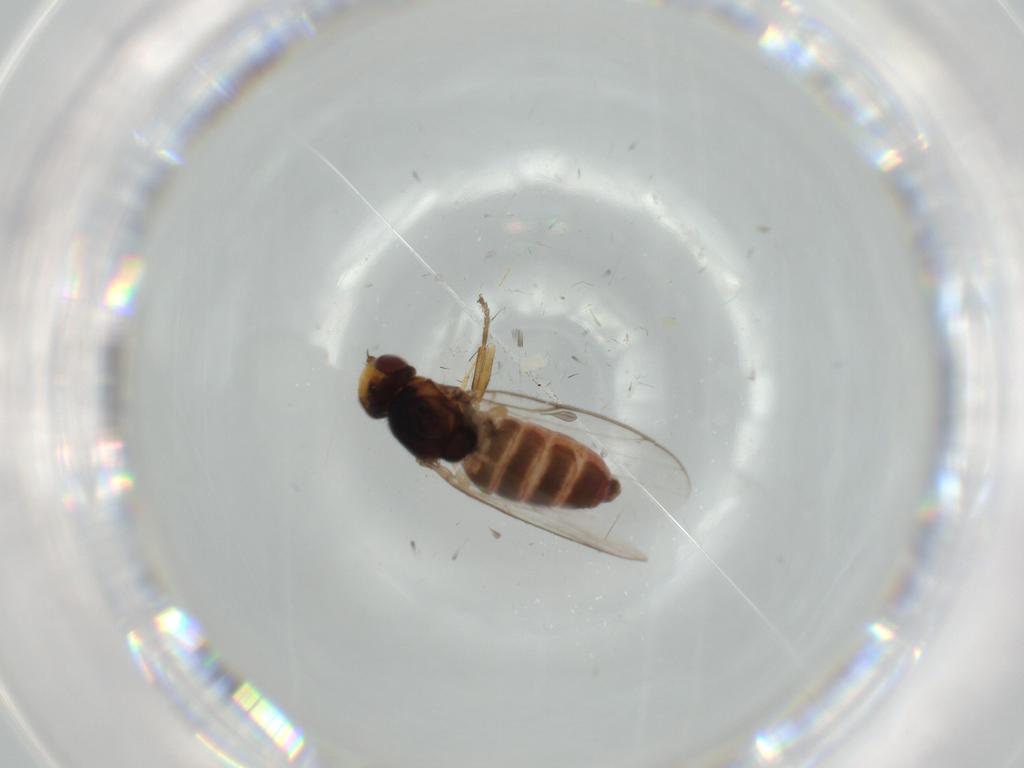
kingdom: Animalia
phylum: Arthropoda
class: Insecta
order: Diptera
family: Chloropidae
